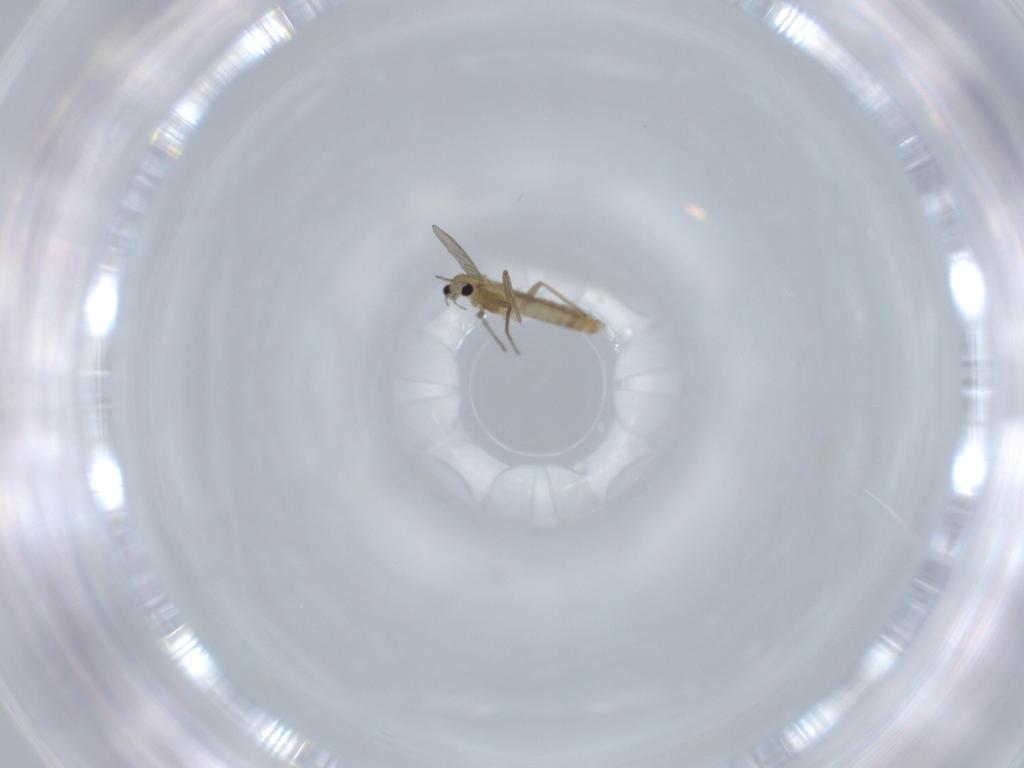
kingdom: Animalia
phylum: Arthropoda
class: Insecta
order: Diptera
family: Chironomidae
